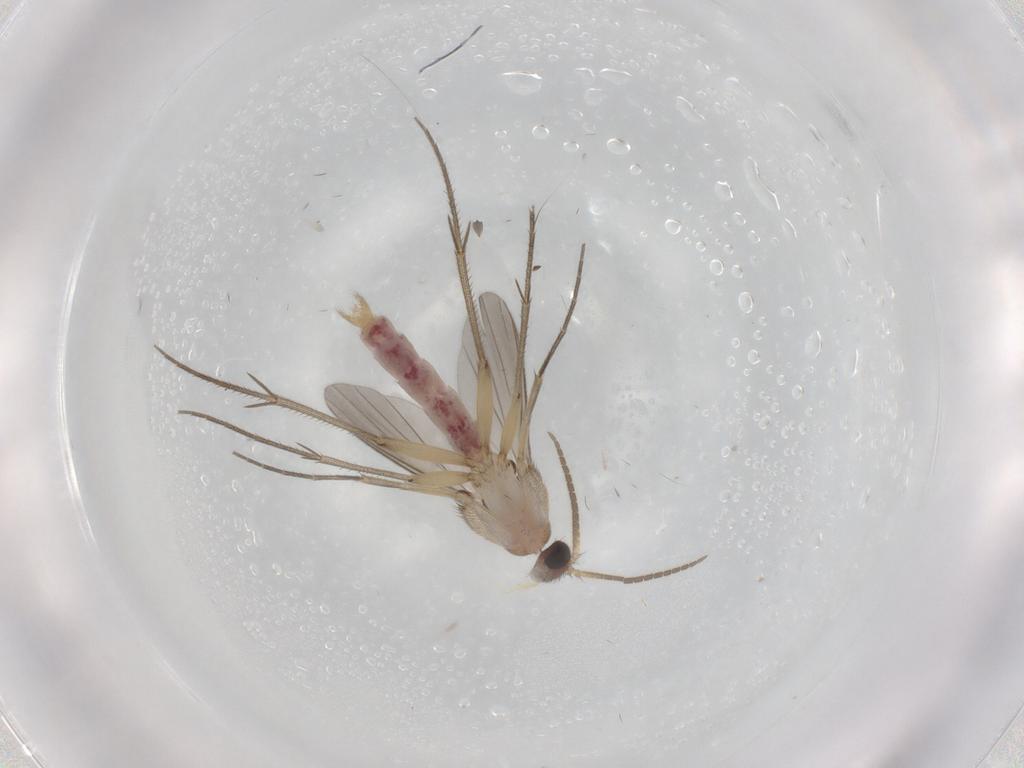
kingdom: Animalia
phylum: Arthropoda
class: Insecta
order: Diptera
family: Mycetophilidae
